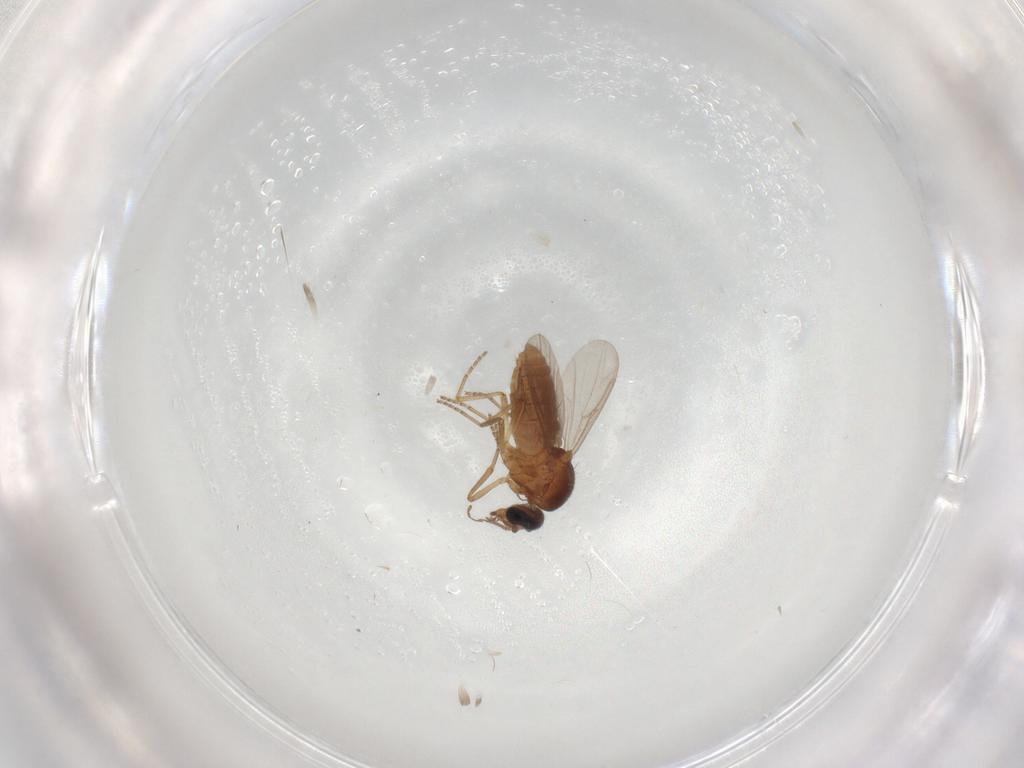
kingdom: Animalia
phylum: Arthropoda
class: Insecta
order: Diptera
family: Ceratopogonidae
